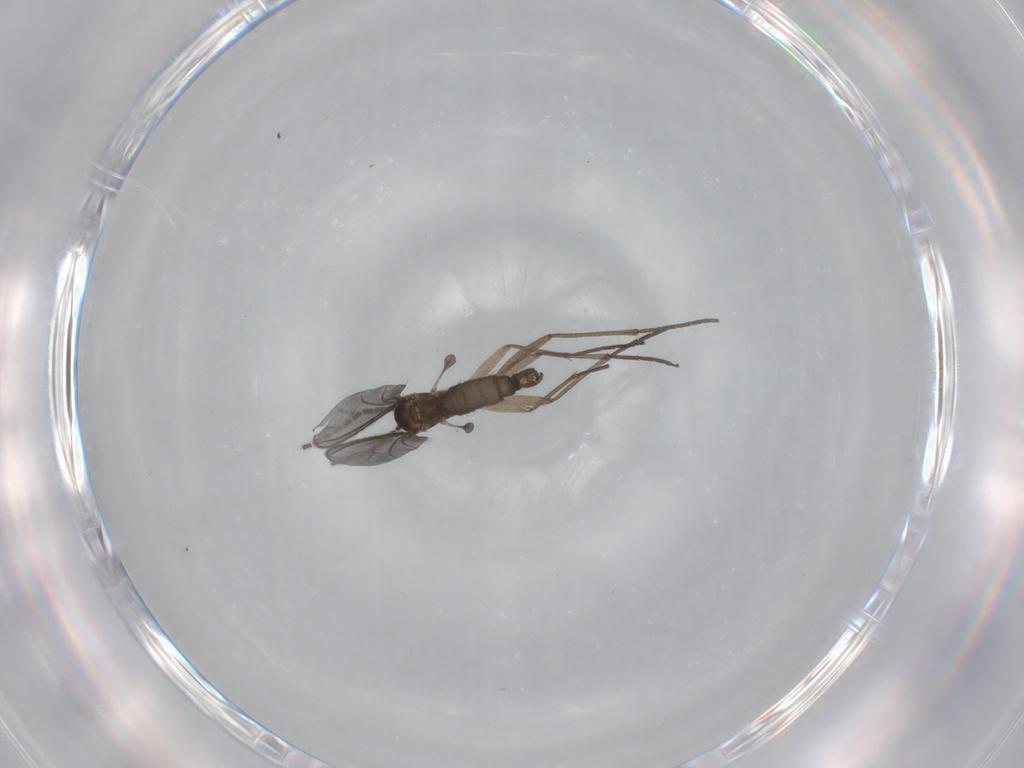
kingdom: Animalia
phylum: Arthropoda
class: Insecta
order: Diptera
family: Sciaridae
